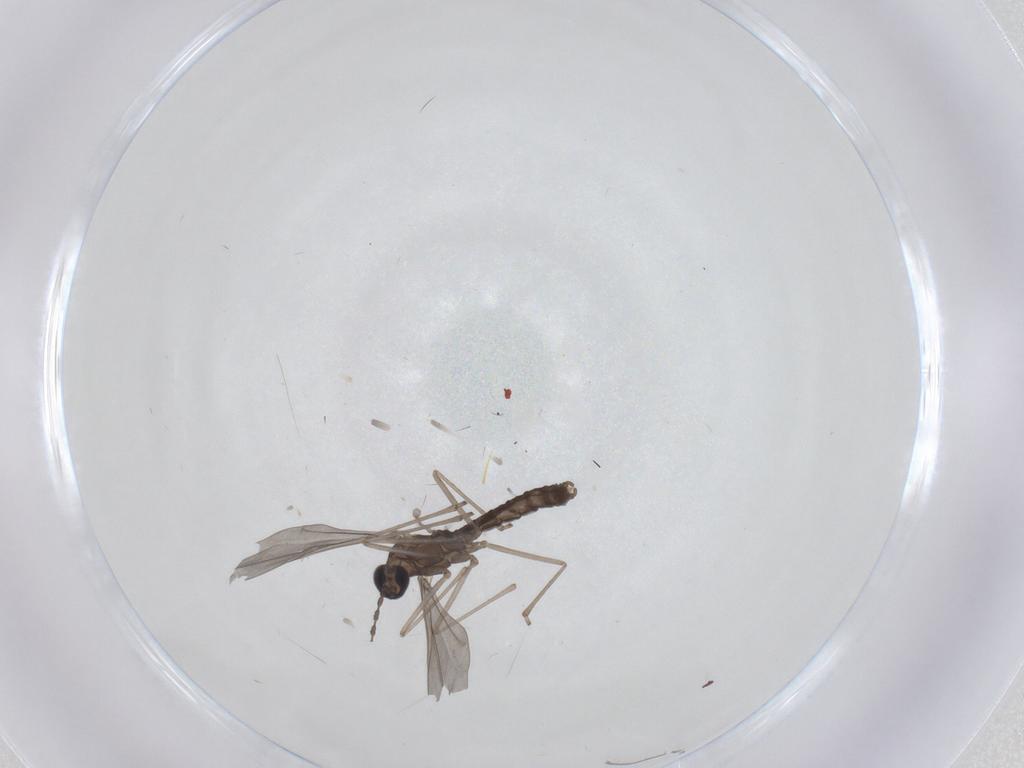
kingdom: Animalia
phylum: Arthropoda
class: Insecta
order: Diptera
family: Cecidomyiidae
